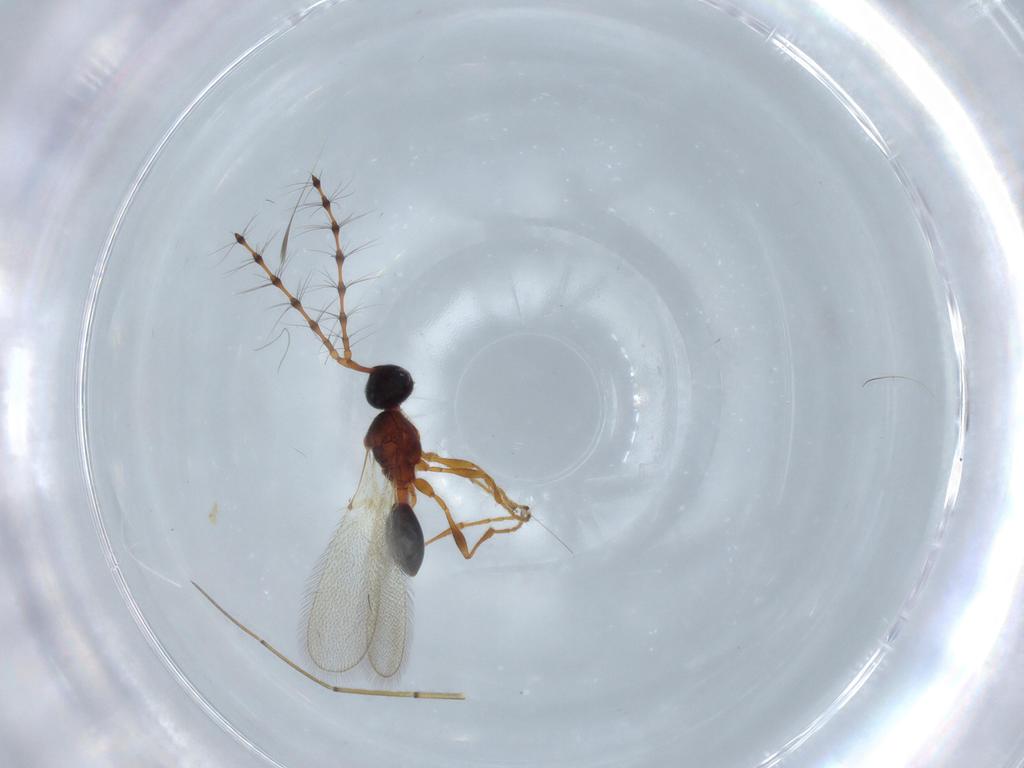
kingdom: Animalia
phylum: Arthropoda
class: Insecta
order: Hymenoptera
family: Diapriidae
